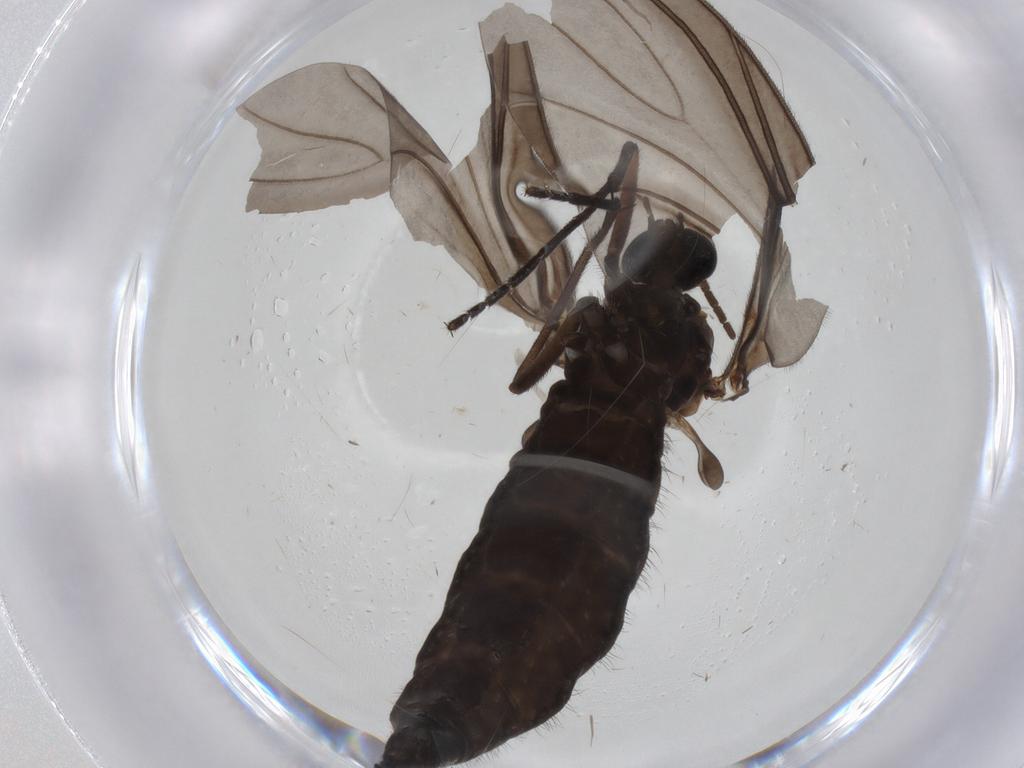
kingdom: Animalia
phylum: Arthropoda
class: Insecta
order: Diptera
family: Sciaridae
